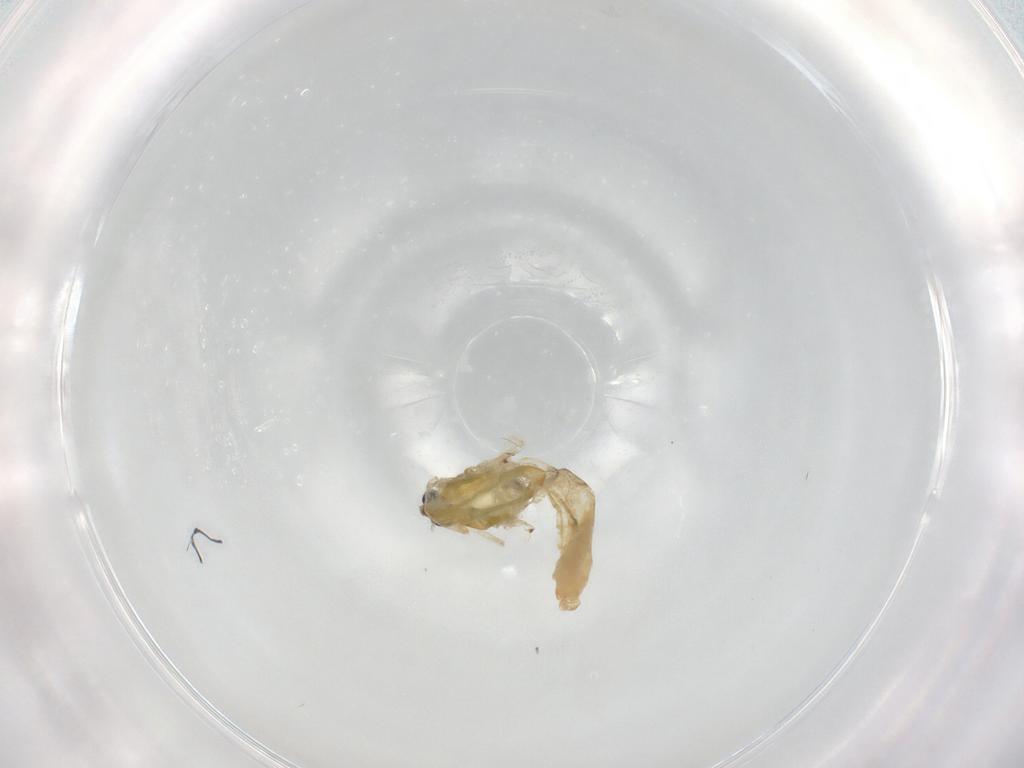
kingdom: Animalia
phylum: Arthropoda
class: Insecta
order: Diptera
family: Chironomidae
